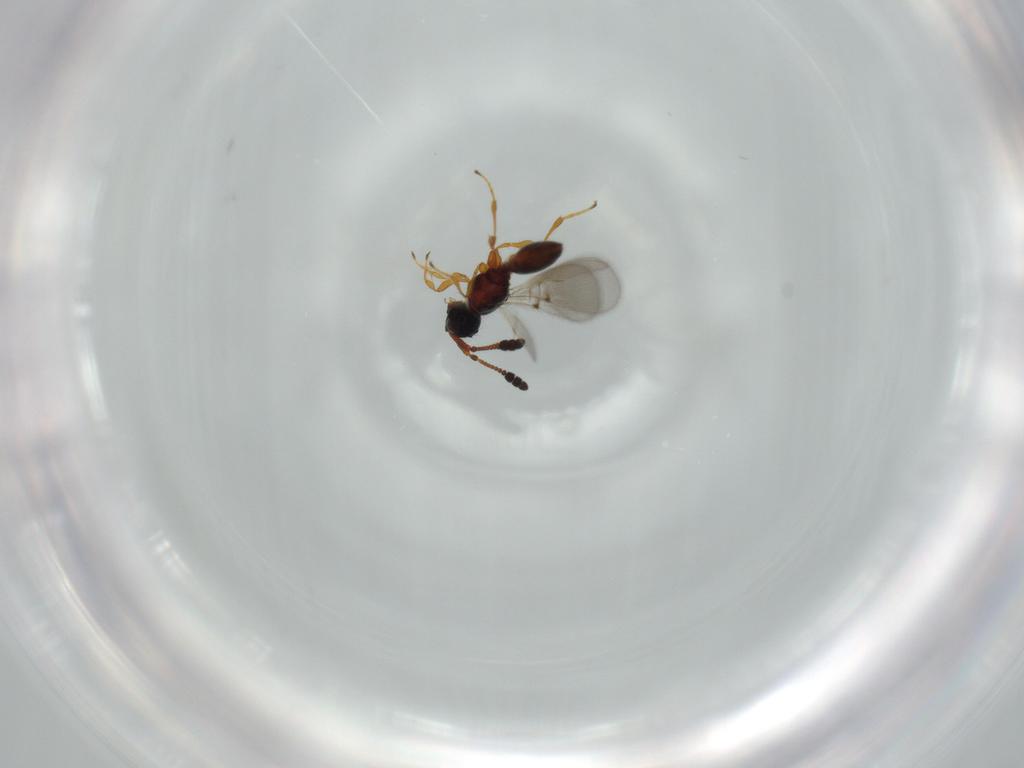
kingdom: Animalia
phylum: Arthropoda
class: Insecta
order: Hymenoptera
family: Diapriidae
